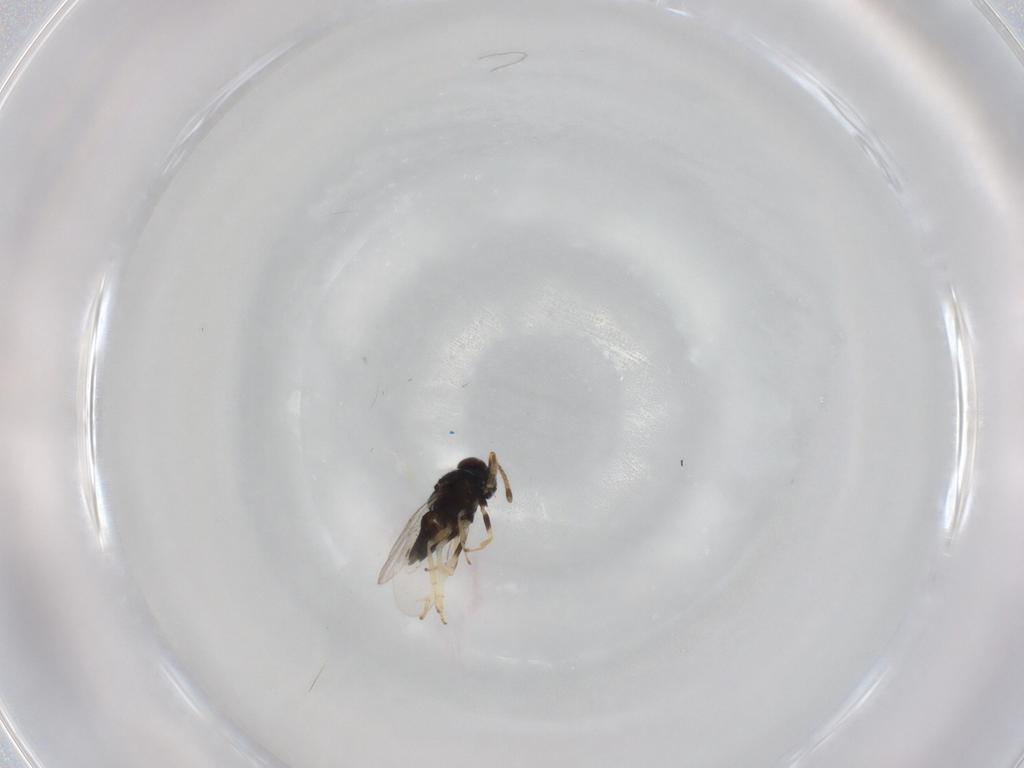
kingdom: Animalia
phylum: Arthropoda
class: Insecta
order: Hymenoptera
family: Encyrtidae
